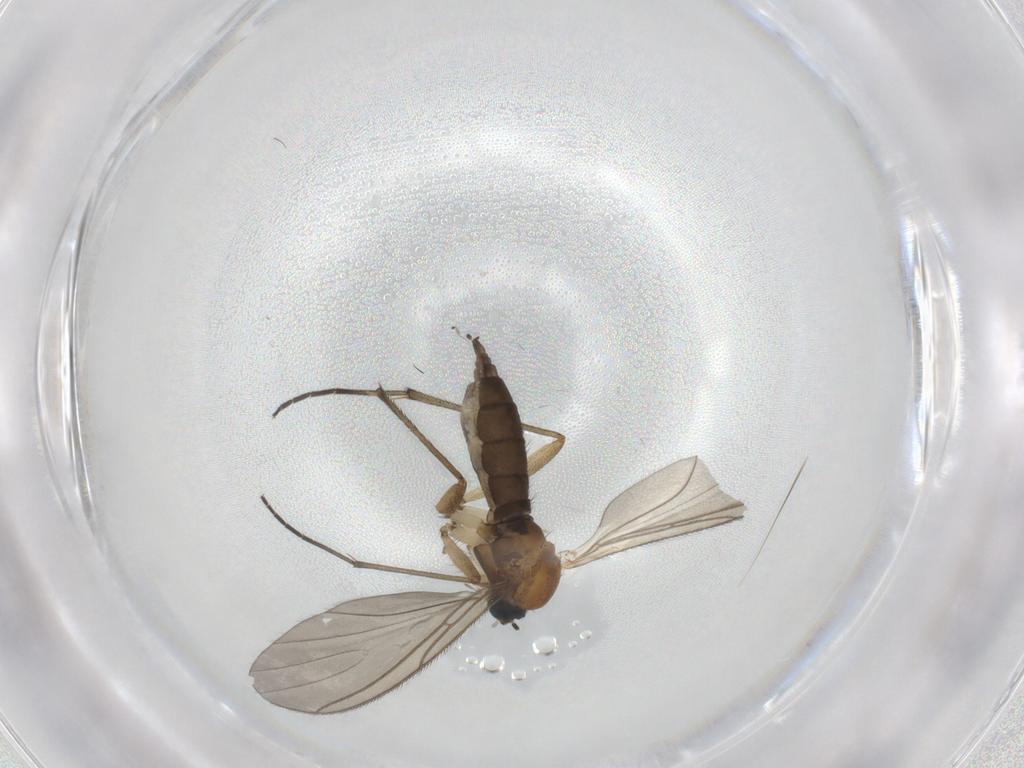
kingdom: Animalia
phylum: Arthropoda
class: Insecta
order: Diptera
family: Sciaridae
